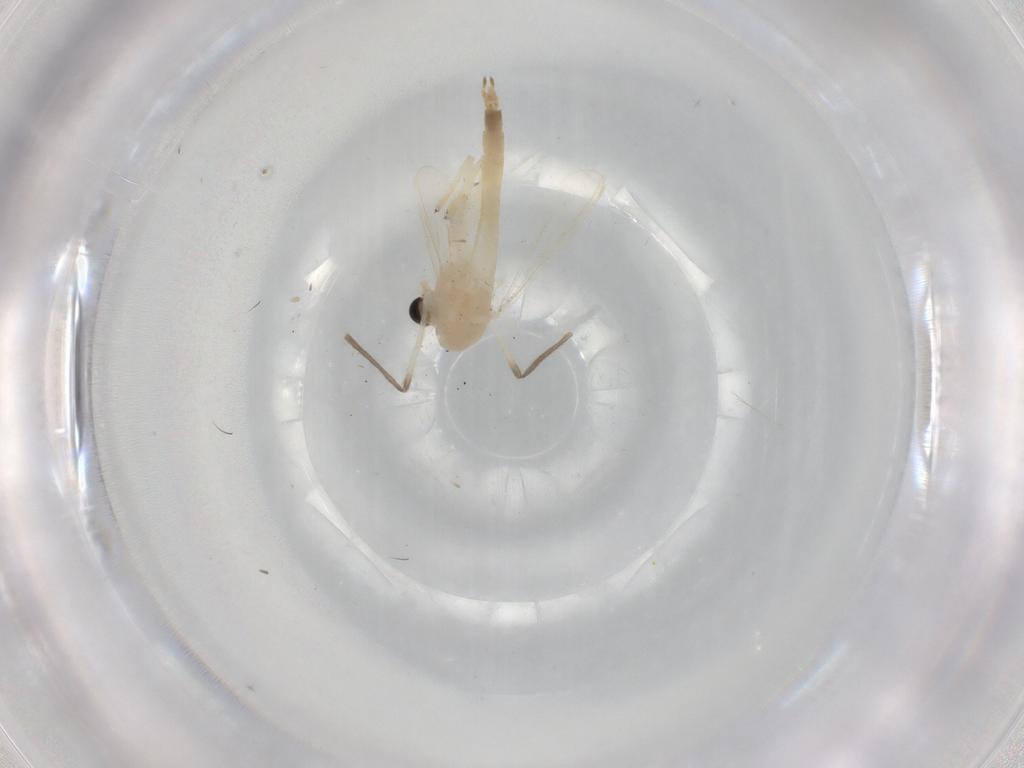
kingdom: Animalia
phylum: Arthropoda
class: Insecta
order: Diptera
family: Chironomidae
